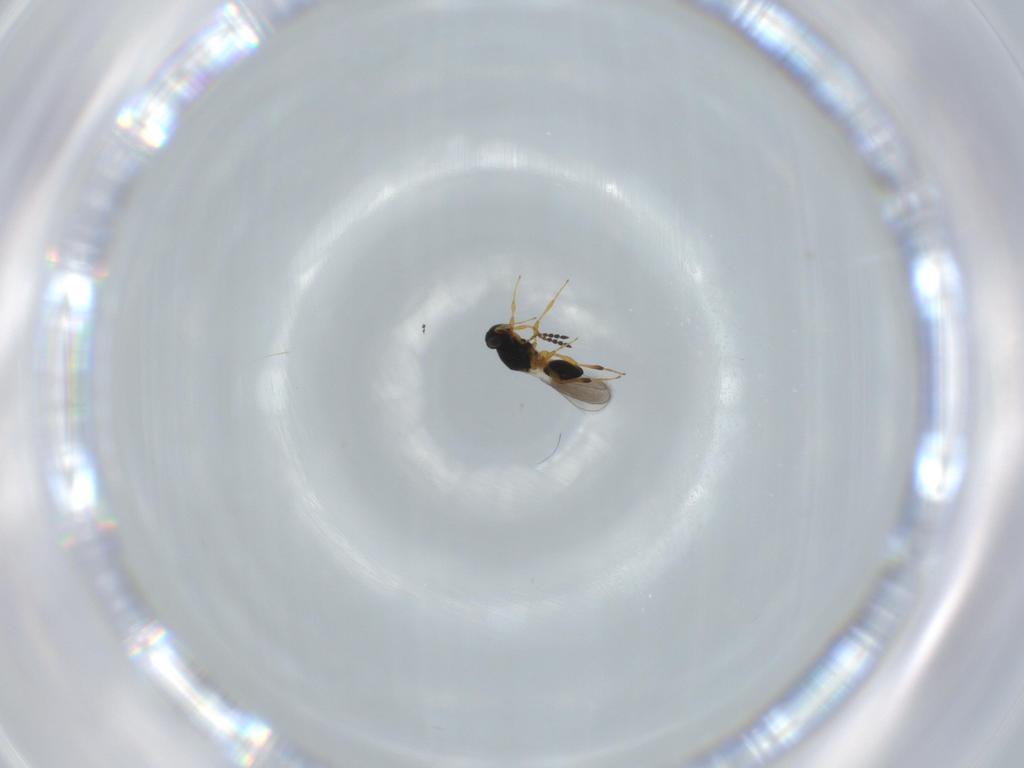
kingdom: Animalia
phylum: Arthropoda
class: Insecta
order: Hymenoptera
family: Platygastridae
